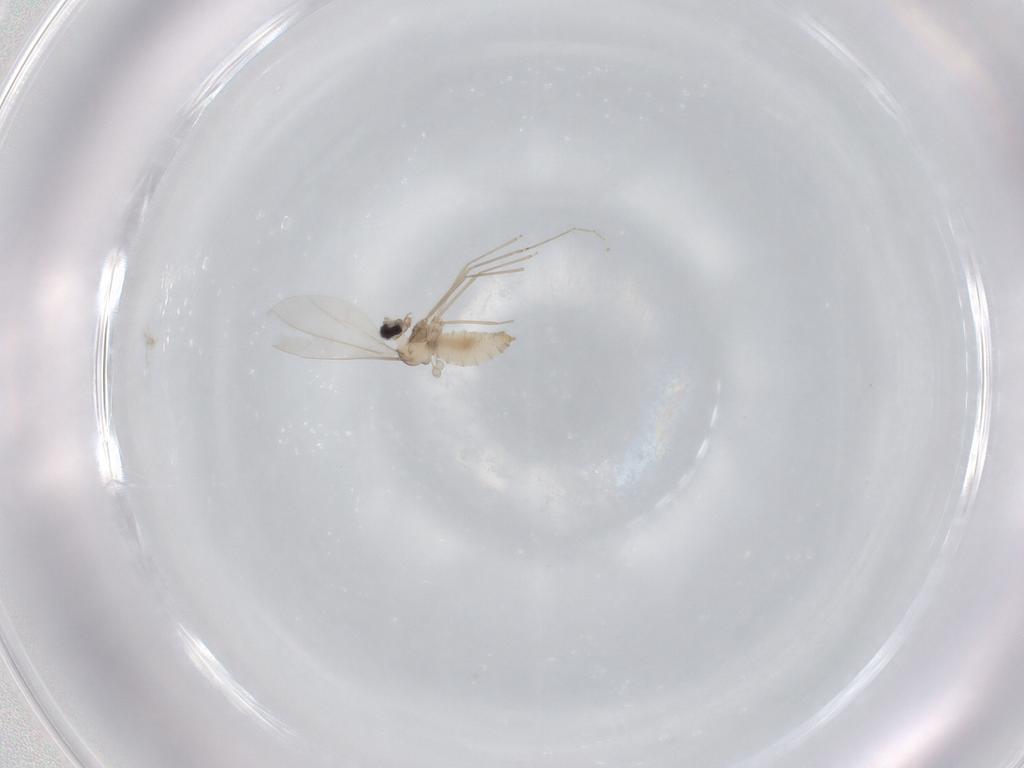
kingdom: Animalia
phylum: Arthropoda
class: Insecta
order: Diptera
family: Cecidomyiidae
